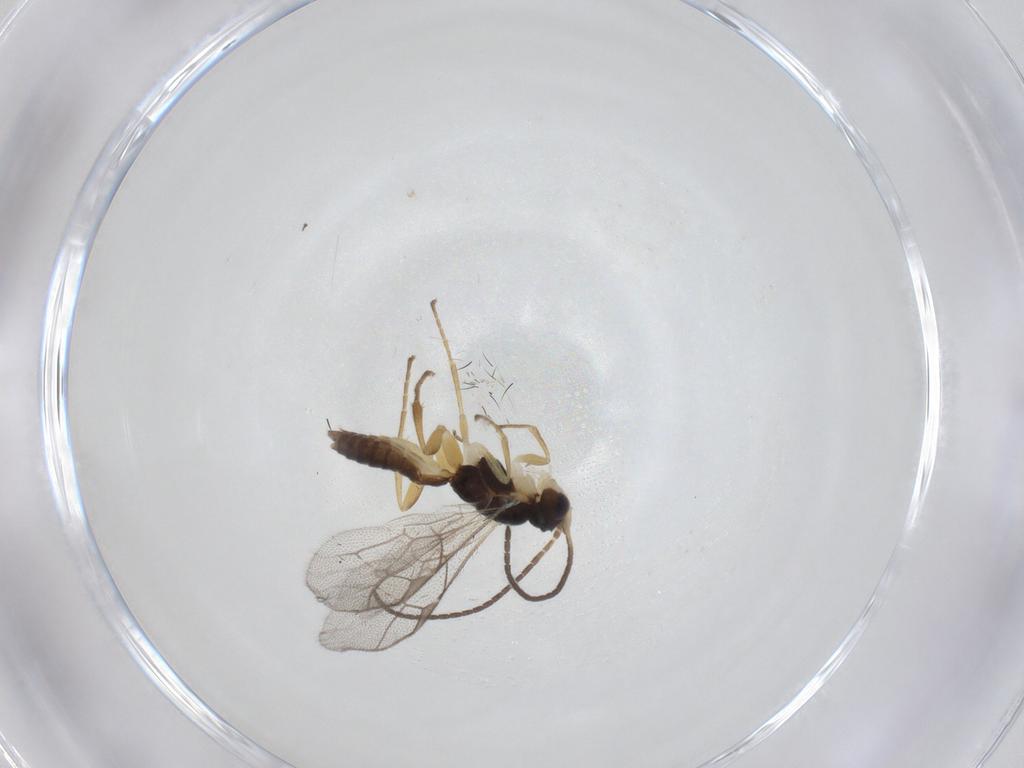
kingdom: Animalia
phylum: Arthropoda
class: Insecta
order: Hymenoptera
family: Ichneumonidae
